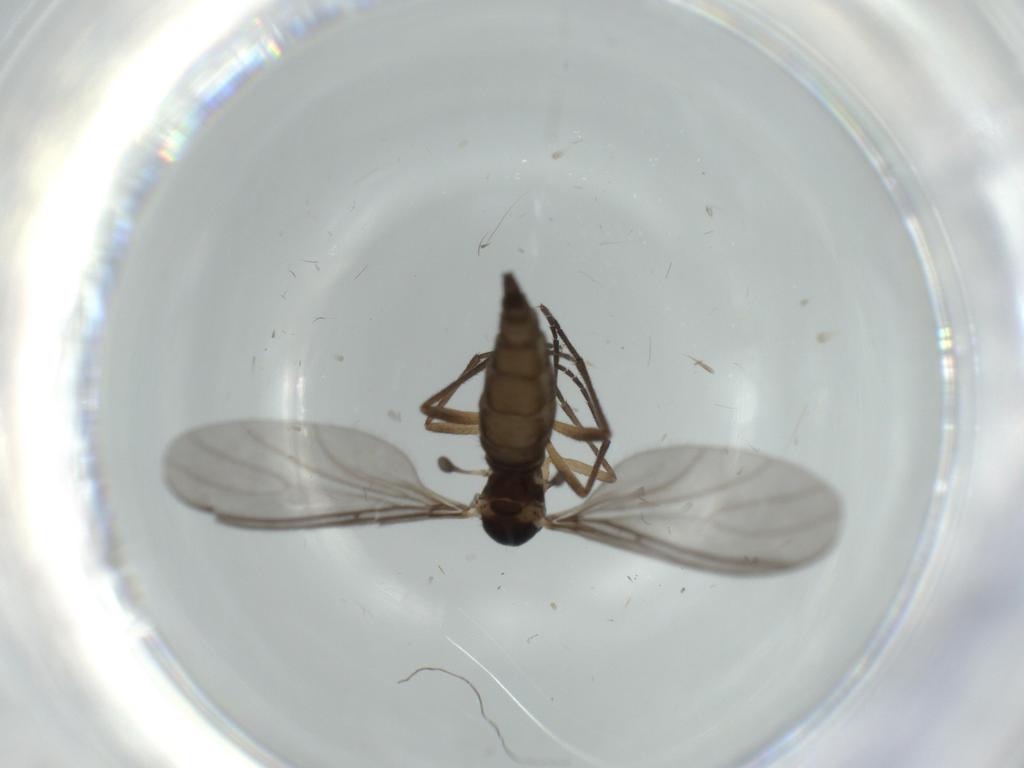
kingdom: Animalia
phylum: Arthropoda
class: Insecta
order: Diptera
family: Sciaridae
